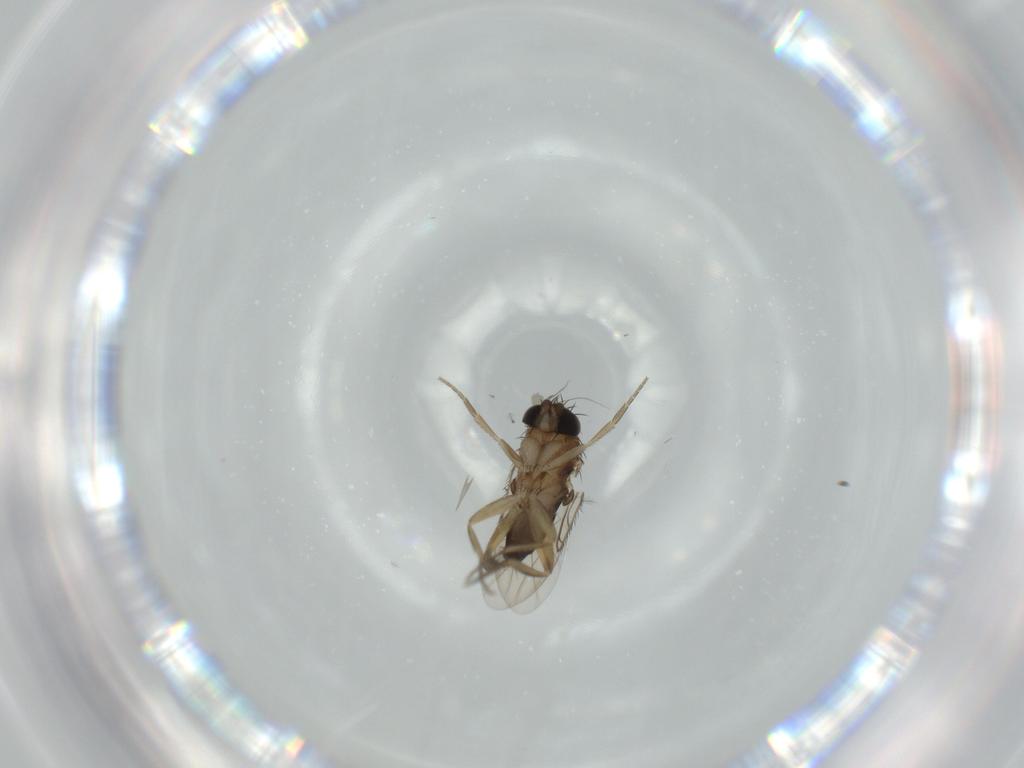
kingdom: Animalia
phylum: Arthropoda
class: Insecta
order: Diptera
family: Phoridae
